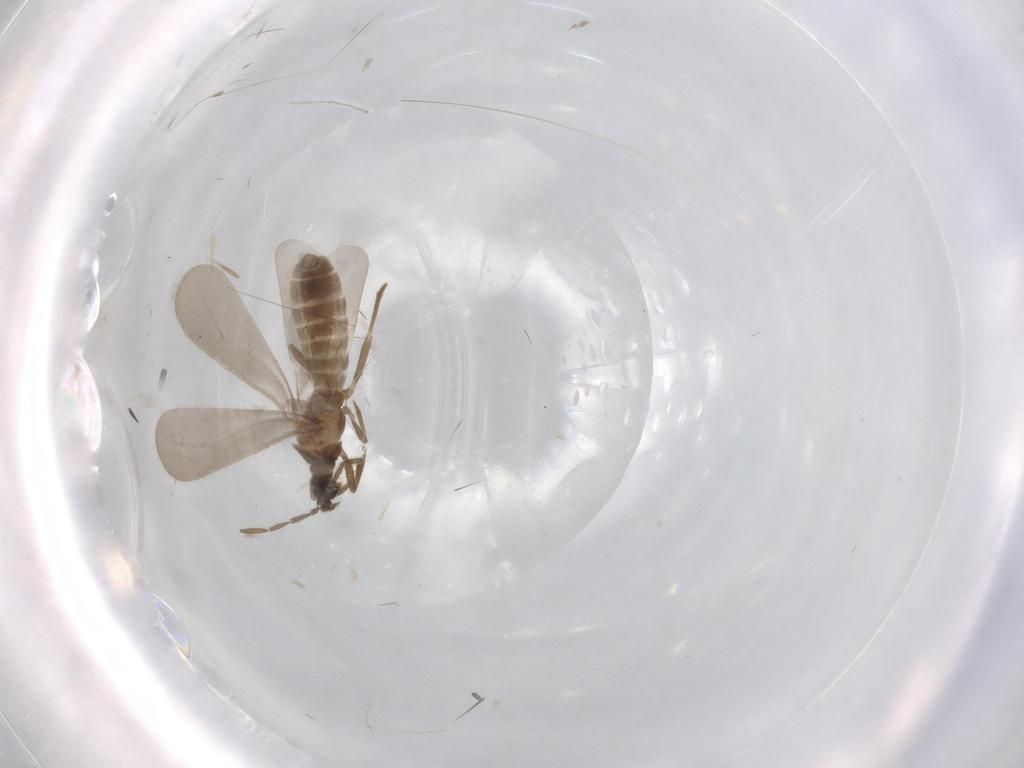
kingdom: Animalia
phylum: Arthropoda
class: Insecta
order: Hemiptera
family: Enicocephalidae
